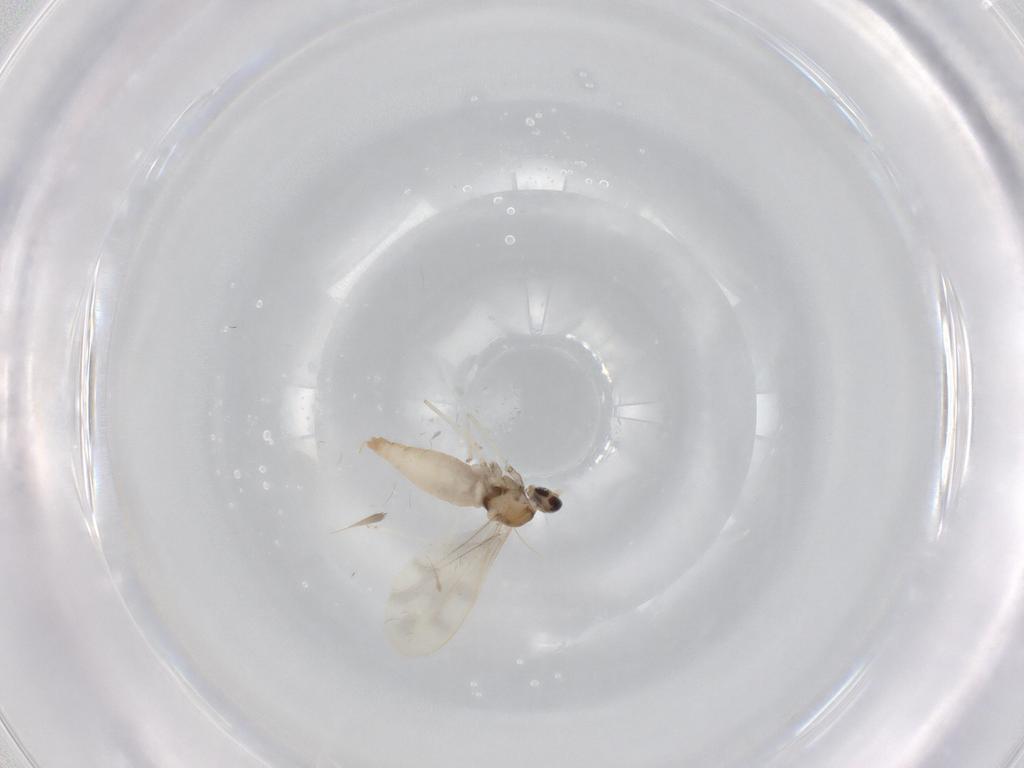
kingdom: Animalia
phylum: Arthropoda
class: Insecta
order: Diptera
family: Cecidomyiidae
